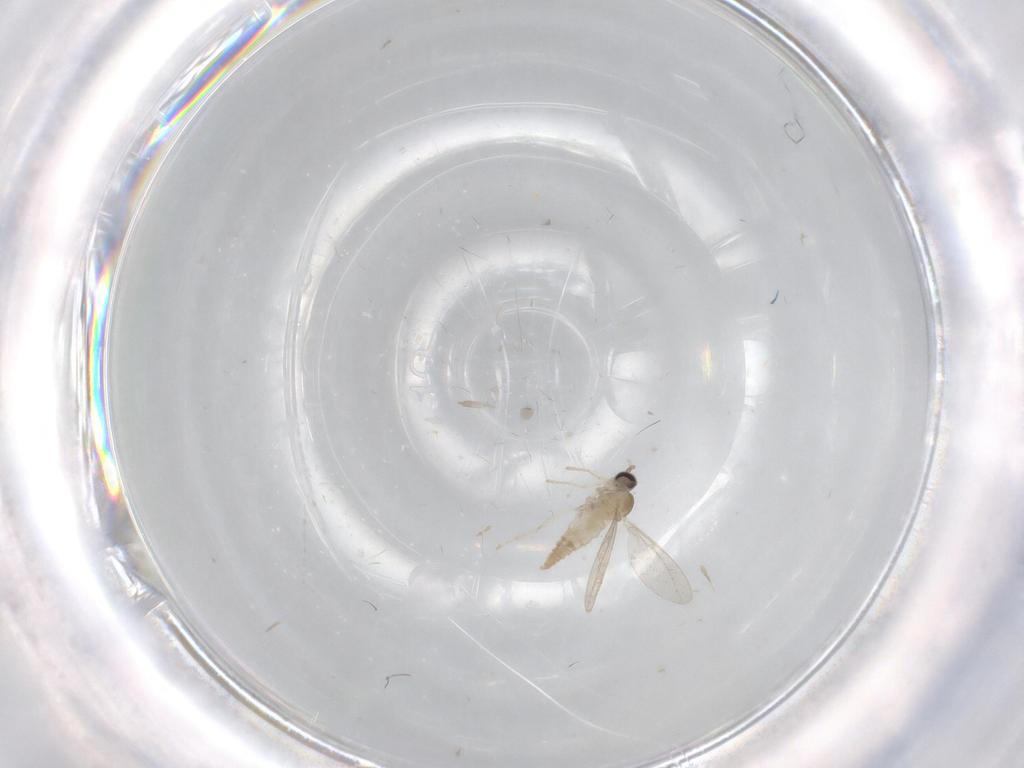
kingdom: Animalia
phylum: Arthropoda
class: Insecta
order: Diptera
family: Cecidomyiidae
